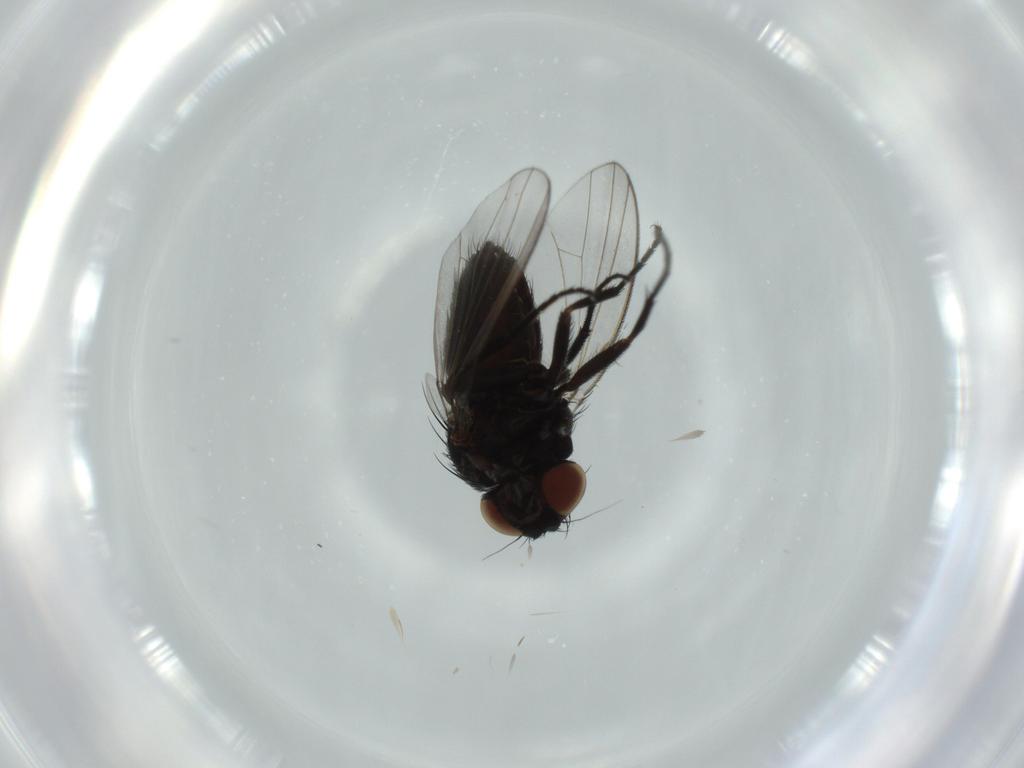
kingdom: Animalia
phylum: Arthropoda
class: Insecta
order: Diptera
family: Milichiidae
